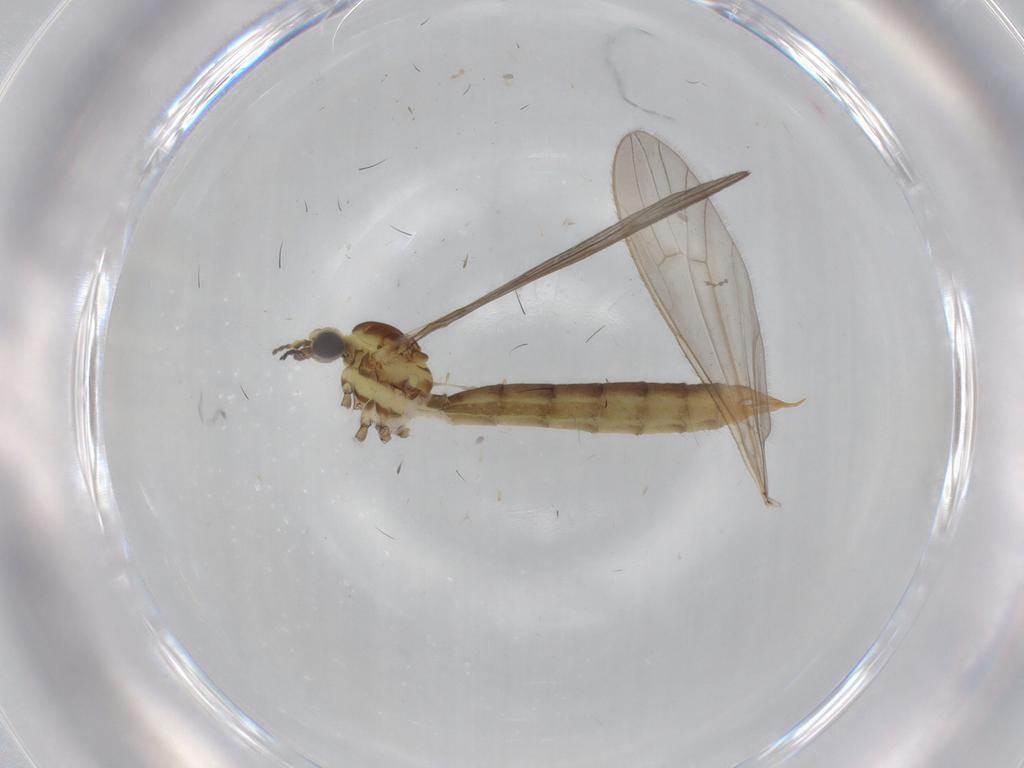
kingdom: Animalia
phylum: Arthropoda
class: Insecta
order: Diptera
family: Limoniidae
